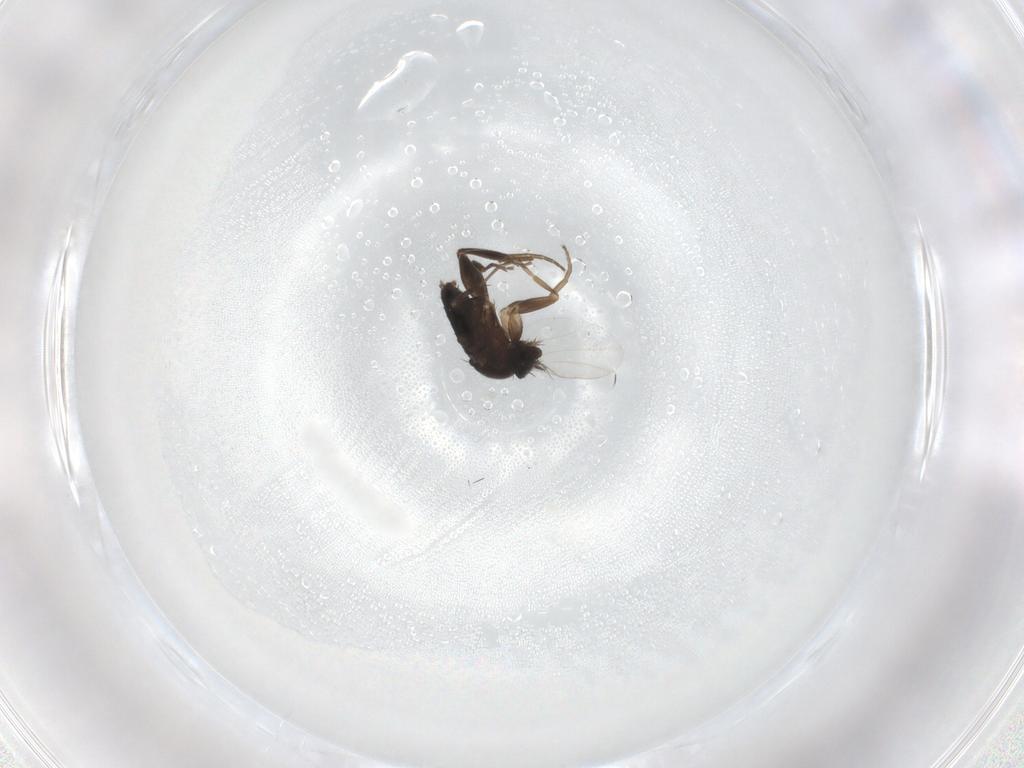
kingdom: Animalia
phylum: Arthropoda
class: Insecta
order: Diptera
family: Phoridae
